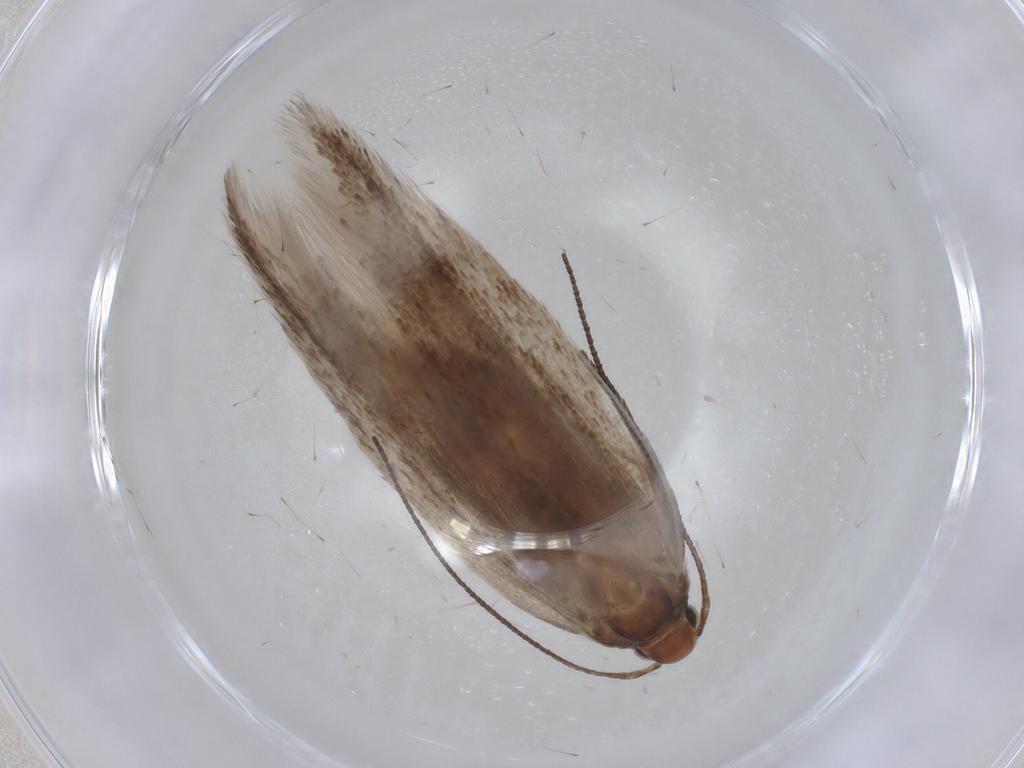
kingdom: Animalia
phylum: Arthropoda
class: Insecta
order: Lepidoptera
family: Gelechiidae
